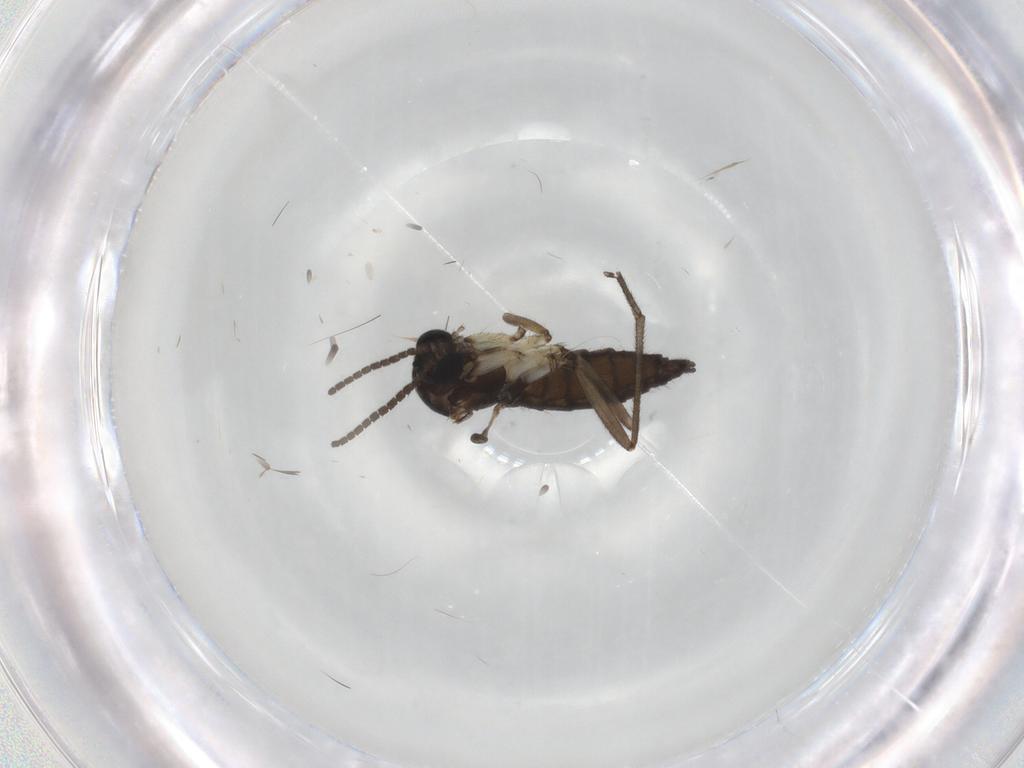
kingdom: Animalia
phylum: Arthropoda
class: Insecta
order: Diptera
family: Sciaridae
